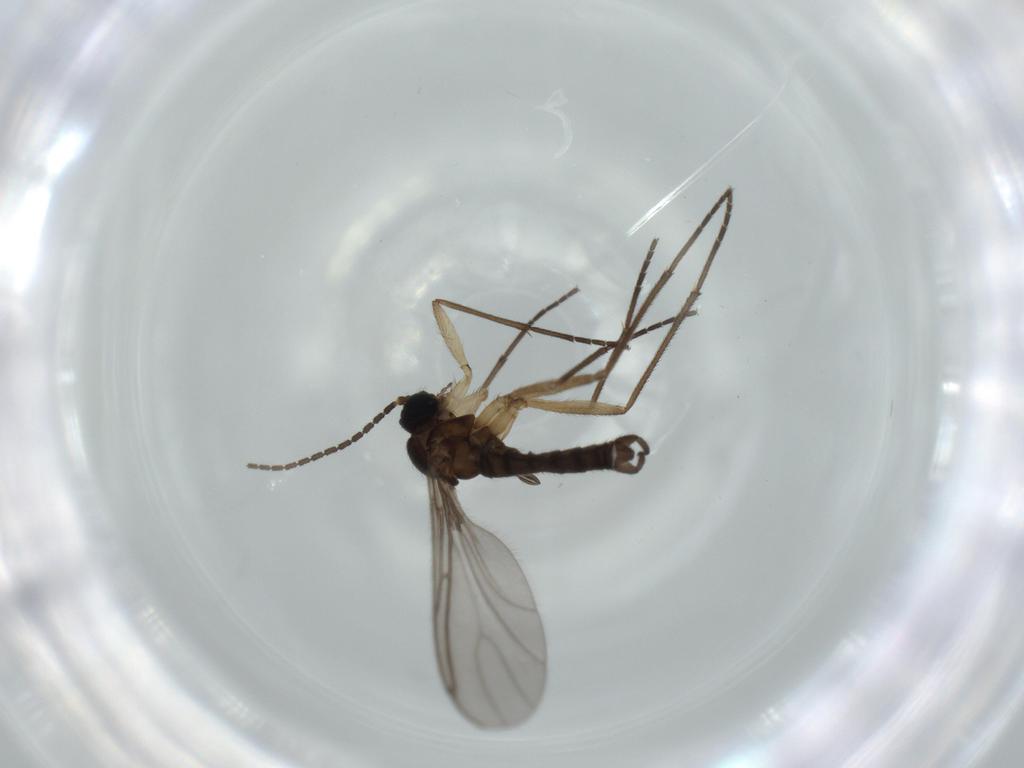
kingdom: Animalia
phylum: Arthropoda
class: Insecta
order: Diptera
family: Sciaridae
